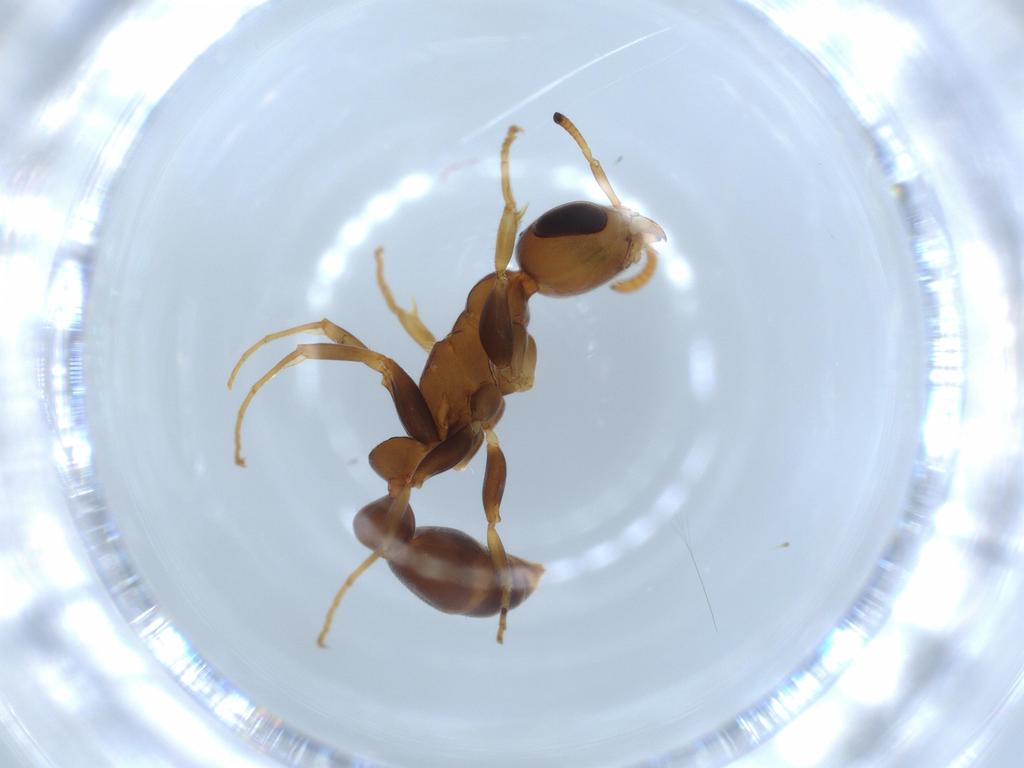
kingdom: Animalia
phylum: Arthropoda
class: Insecta
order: Hymenoptera
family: Formicidae
